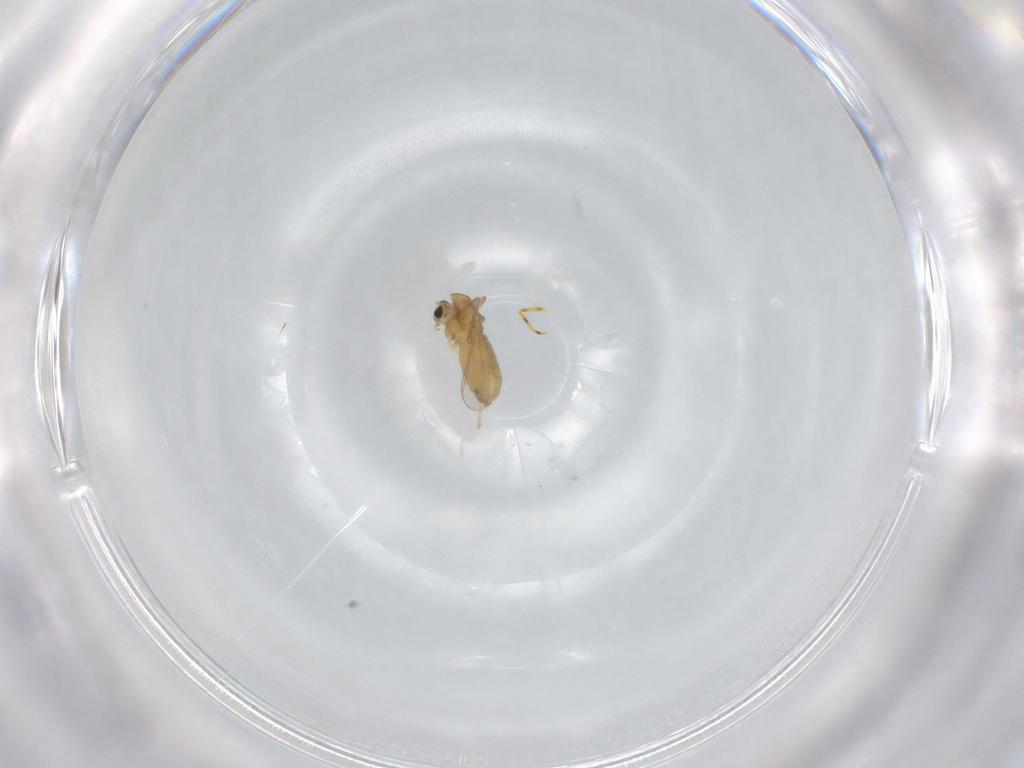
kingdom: Animalia
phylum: Arthropoda
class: Insecta
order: Diptera
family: Chironomidae
